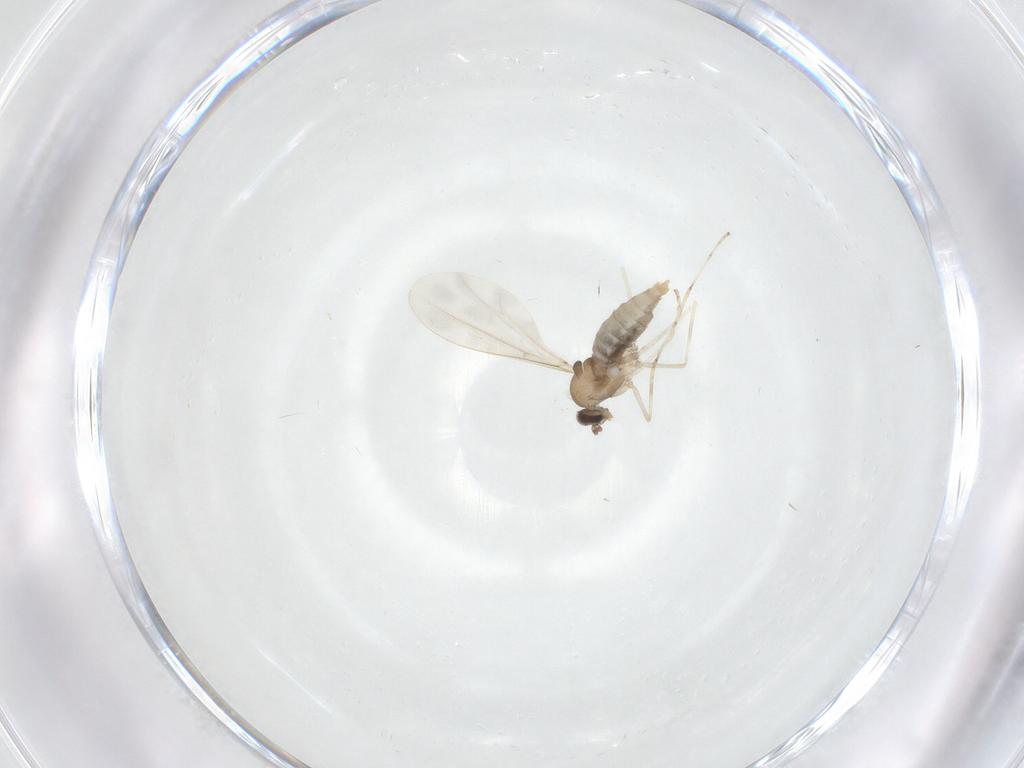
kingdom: Animalia
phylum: Arthropoda
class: Insecta
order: Diptera
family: Cecidomyiidae
